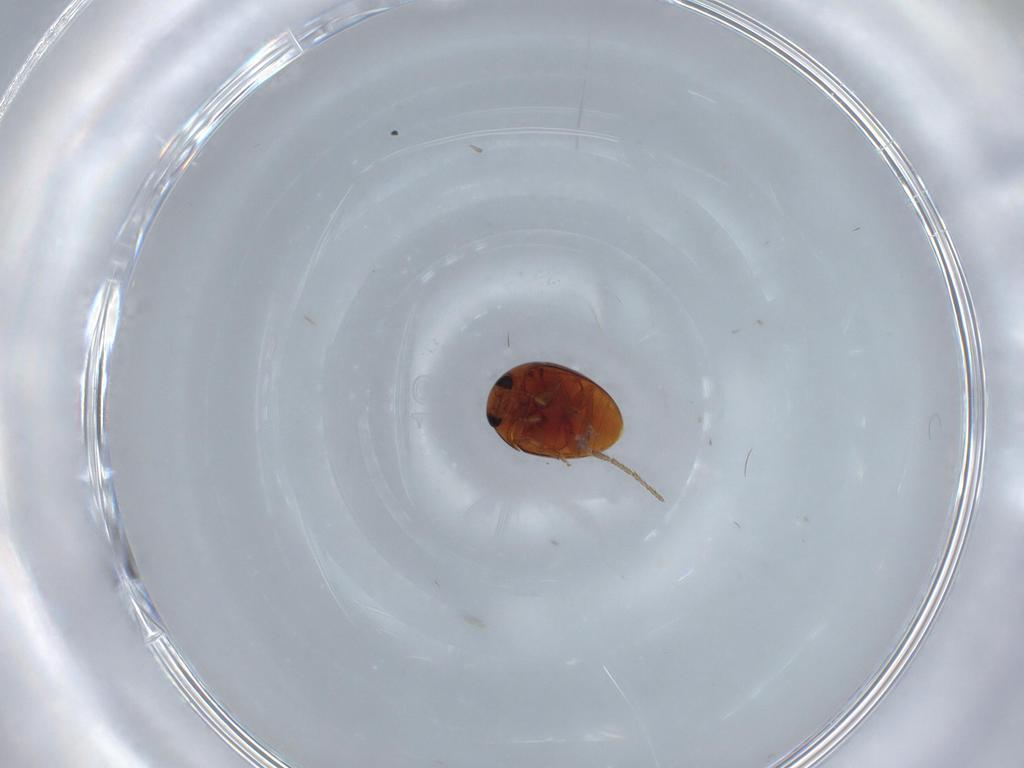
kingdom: Animalia
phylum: Arthropoda
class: Insecta
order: Coleoptera
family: Phalacridae
